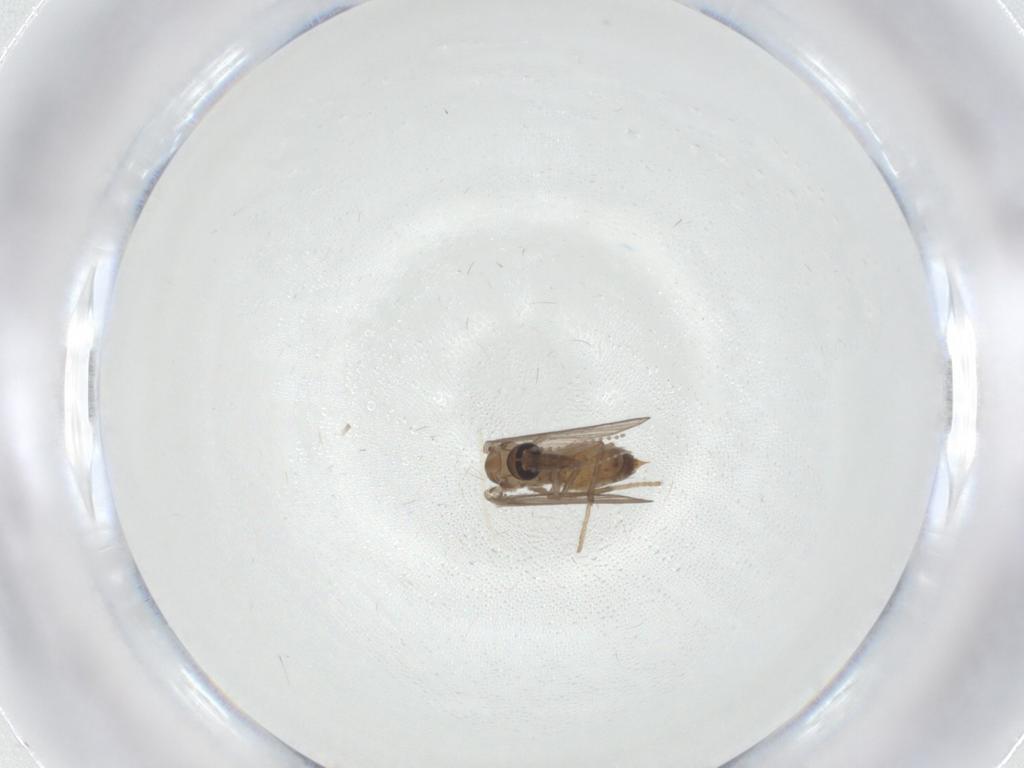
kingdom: Animalia
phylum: Arthropoda
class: Insecta
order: Diptera
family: Psychodidae
